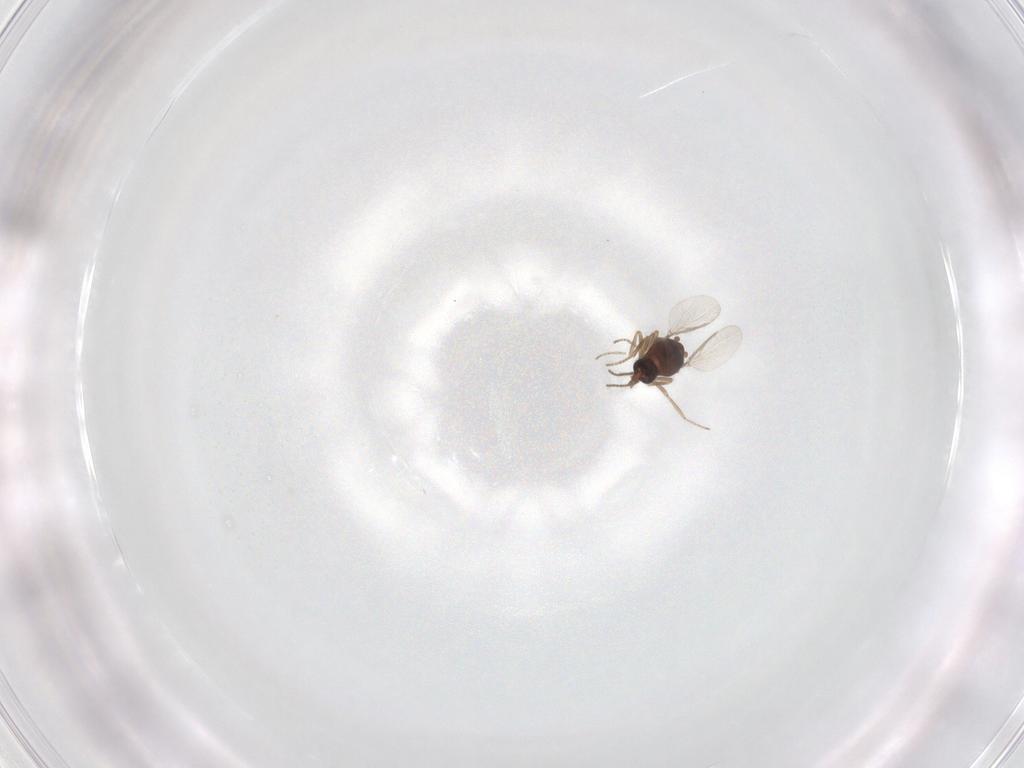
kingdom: Animalia
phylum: Arthropoda
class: Insecta
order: Diptera
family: Ceratopogonidae
